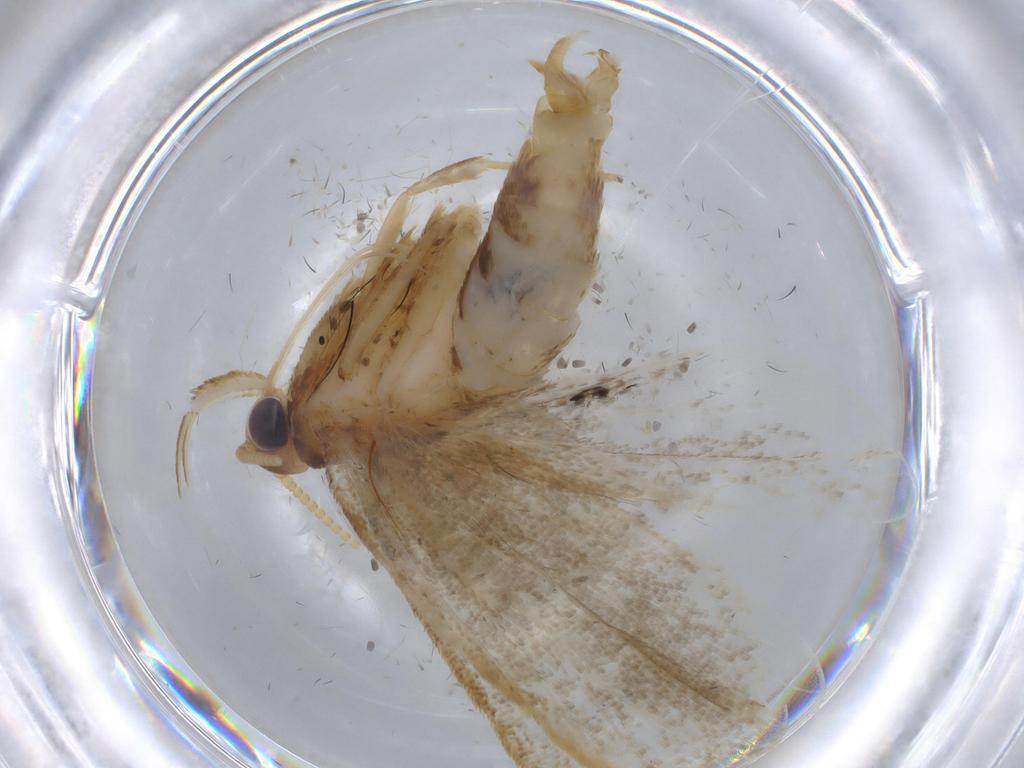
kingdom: Animalia
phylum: Arthropoda
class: Insecta
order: Lepidoptera
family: Lecithoceridae
